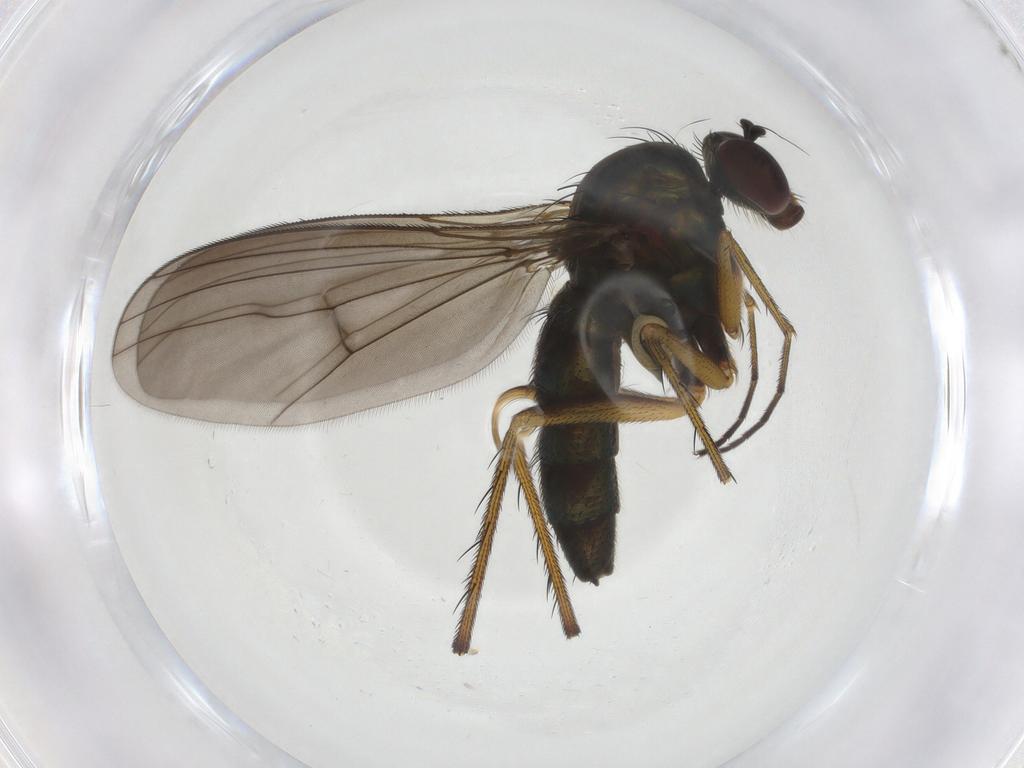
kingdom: Animalia
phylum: Arthropoda
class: Insecta
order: Diptera
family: Dolichopodidae
